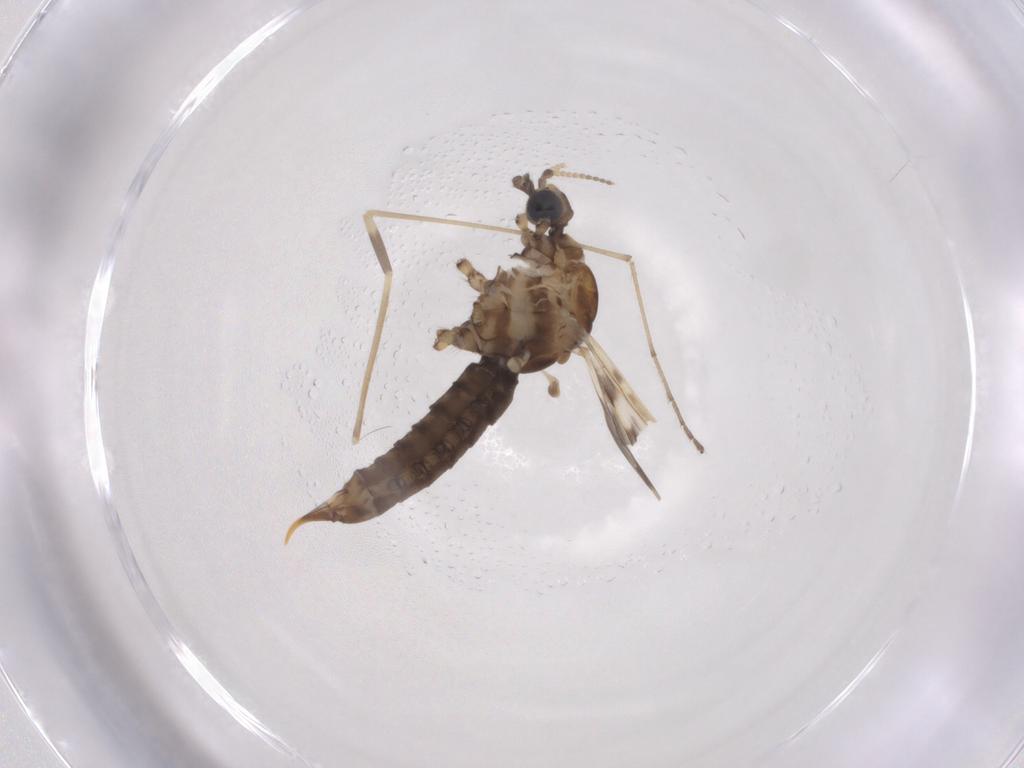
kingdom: Animalia
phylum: Arthropoda
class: Insecta
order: Diptera
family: Limoniidae
